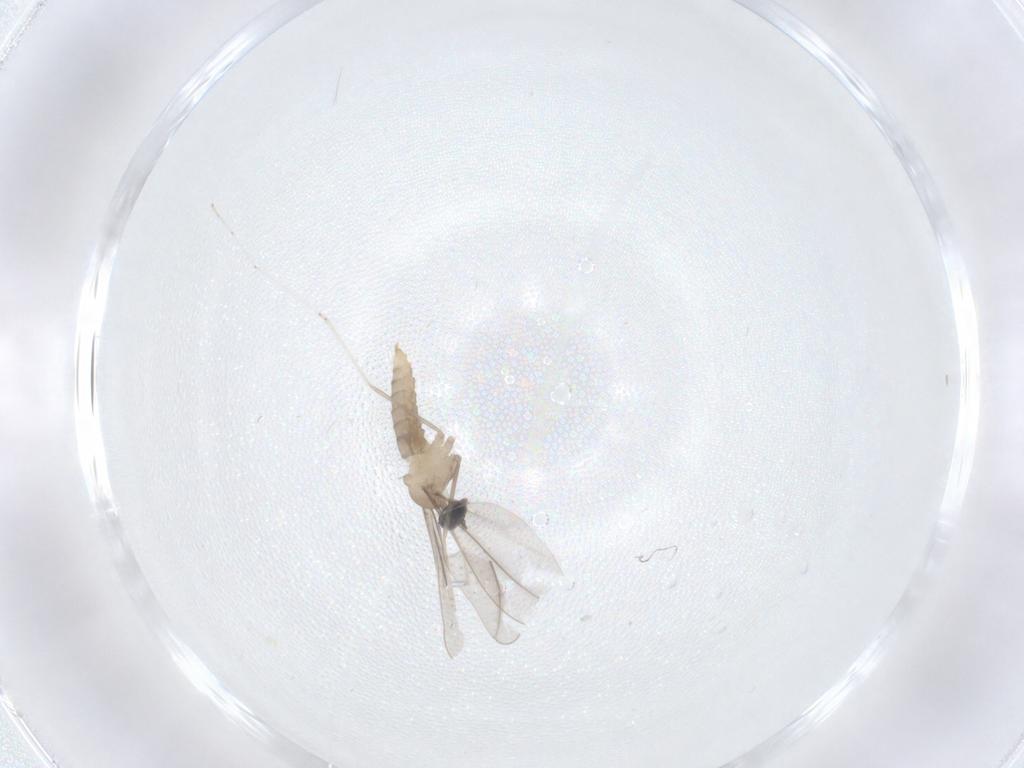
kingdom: Animalia
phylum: Arthropoda
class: Insecta
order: Diptera
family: Cecidomyiidae
